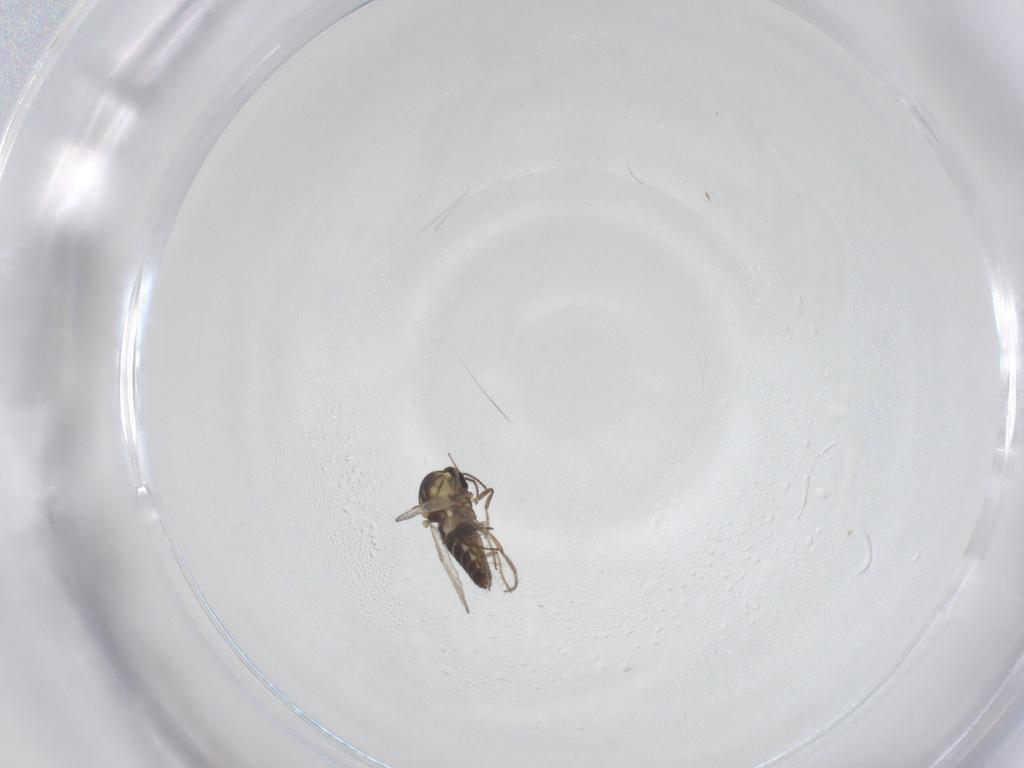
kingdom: Animalia
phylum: Arthropoda
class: Insecta
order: Diptera
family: Ceratopogonidae
